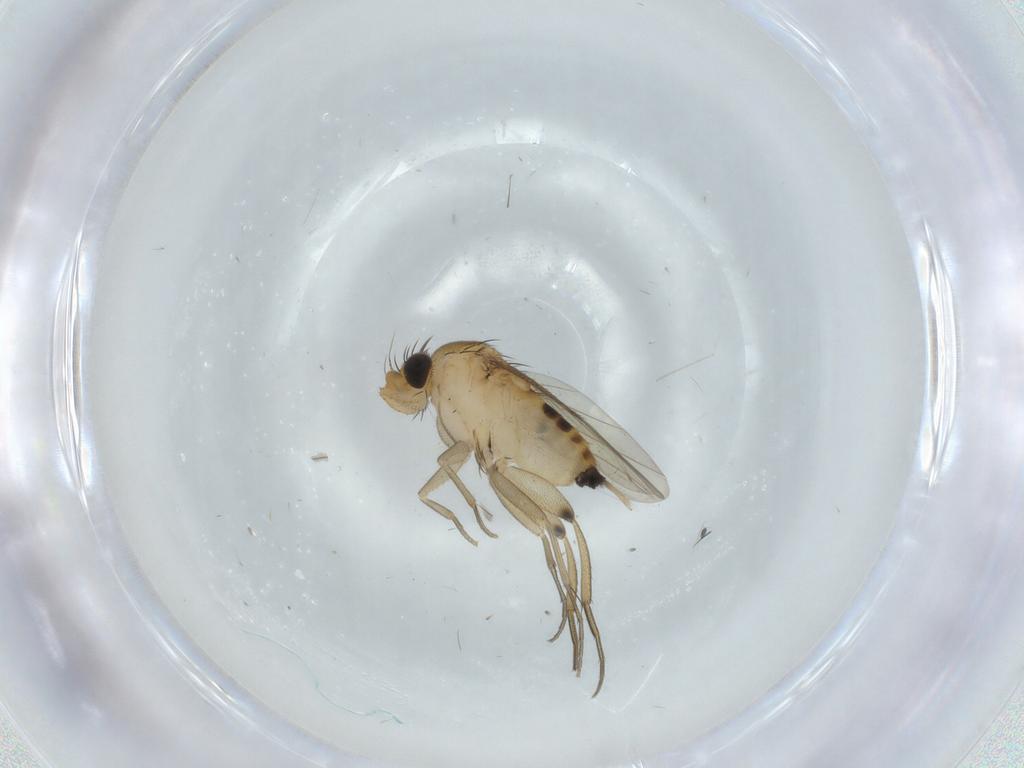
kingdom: Animalia
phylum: Arthropoda
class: Insecta
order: Diptera
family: Phoridae
